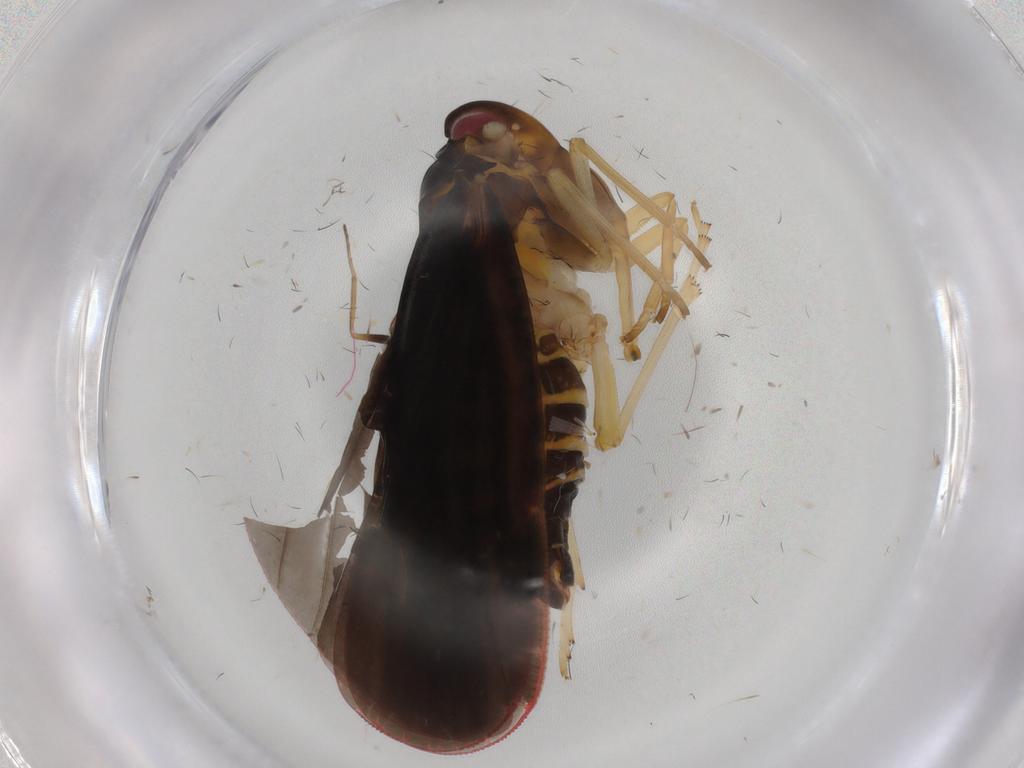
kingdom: Animalia
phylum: Arthropoda
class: Insecta
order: Hemiptera
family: Derbidae
